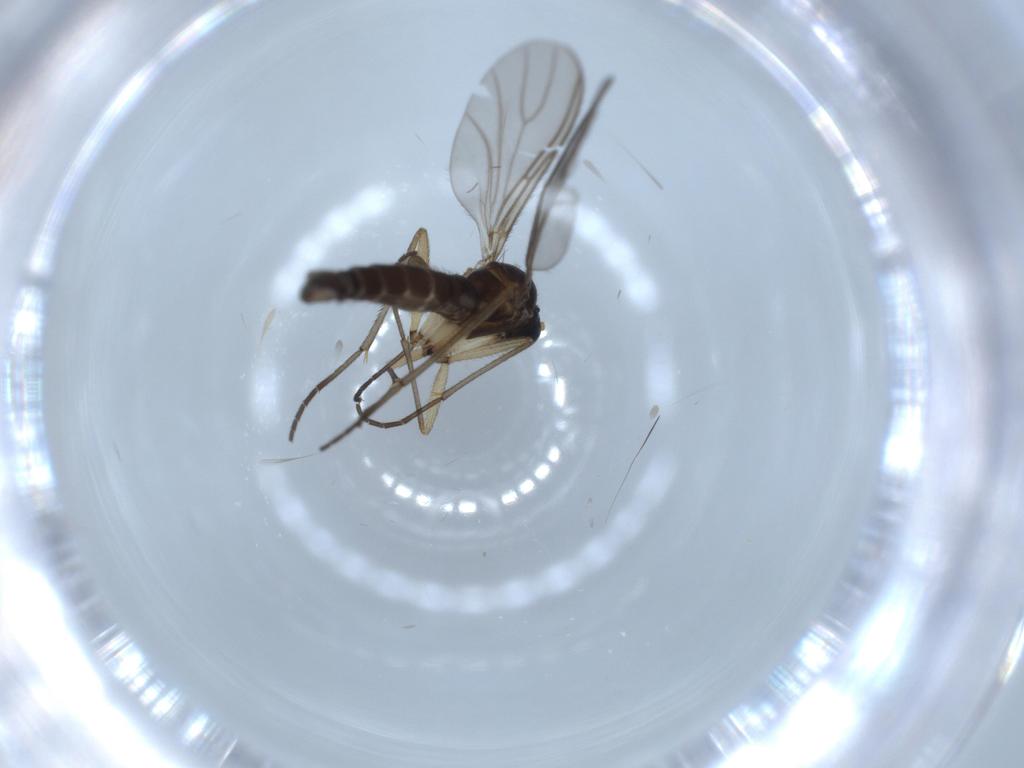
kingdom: Animalia
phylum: Arthropoda
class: Insecta
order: Diptera
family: Sciaridae
